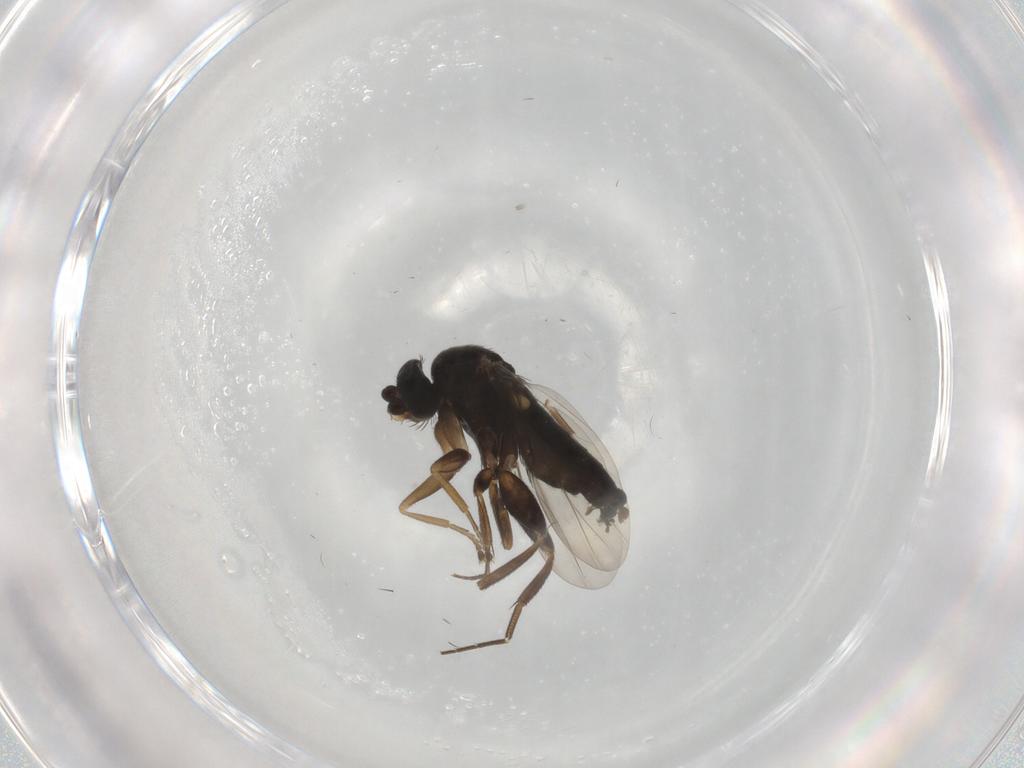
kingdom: Animalia
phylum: Arthropoda
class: Insecta
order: Diptera
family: Phoridae
